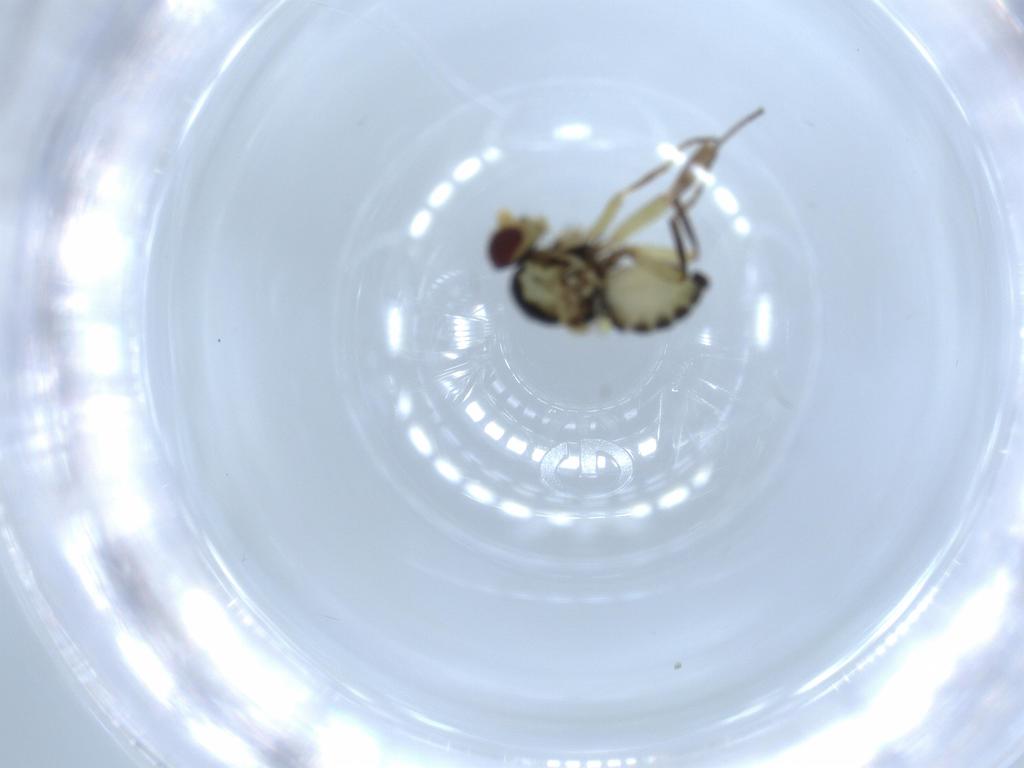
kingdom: Animalia
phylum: Arthropoda
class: Insecta
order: Diptera
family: Agromyzidae
